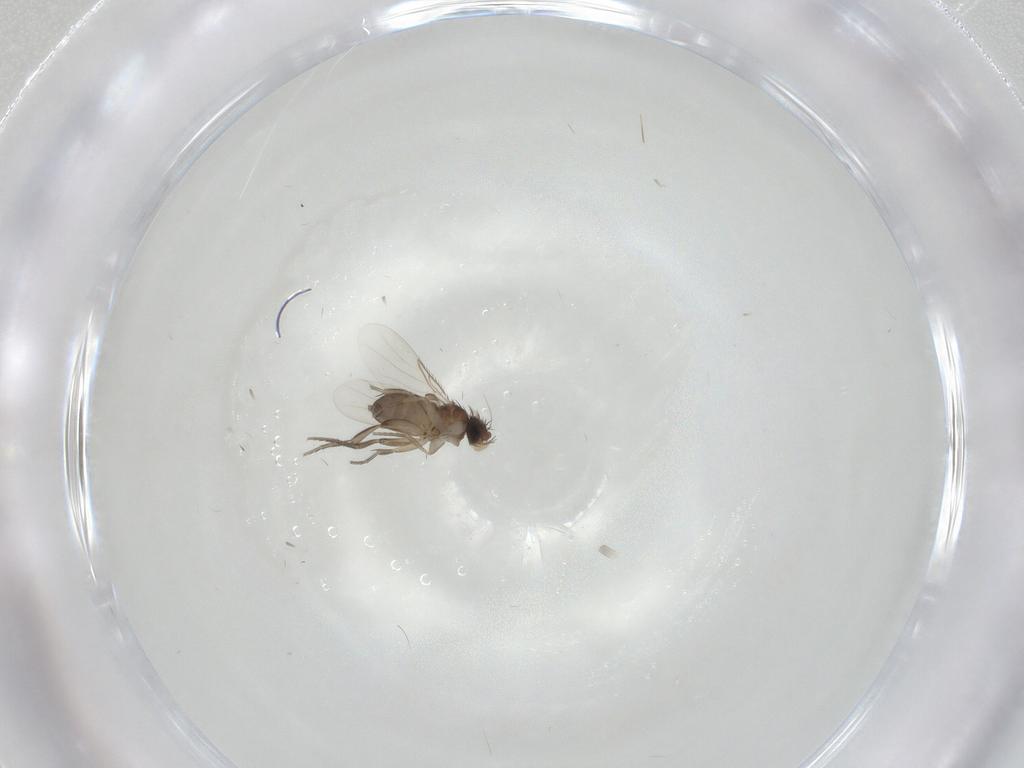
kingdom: Animalia
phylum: Arthropoda
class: Insecta
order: Diptera
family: Phoridae
